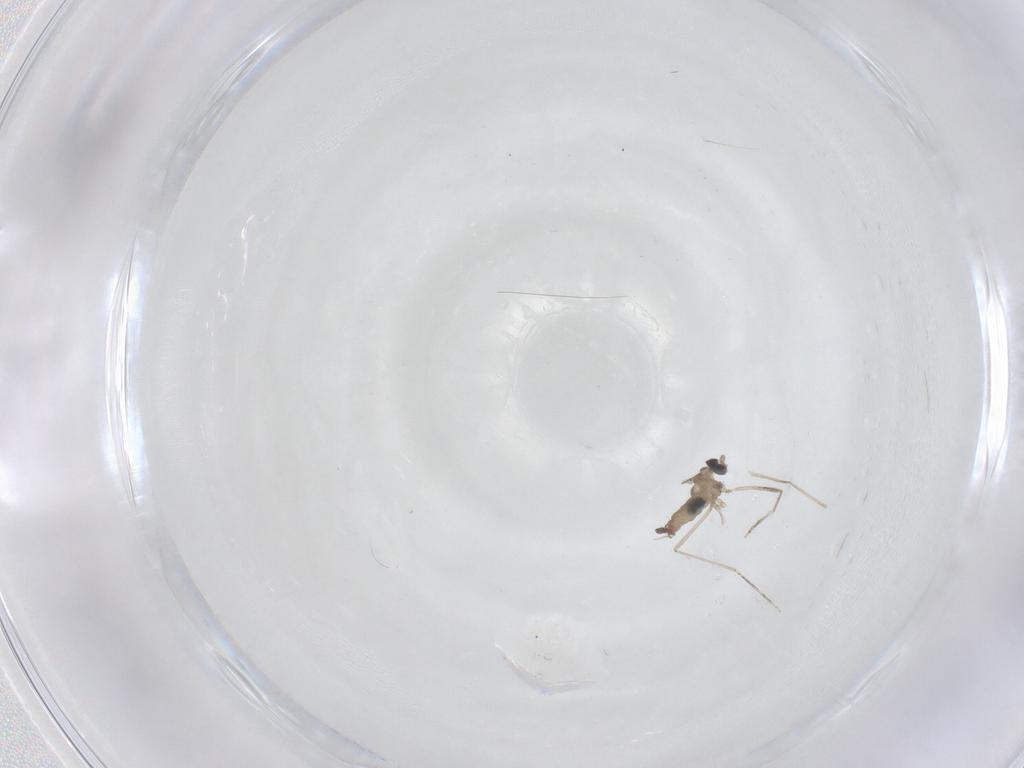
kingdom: Animalia
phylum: Arthropoda
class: Insecta
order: Diptera
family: Cecidomyiidae
